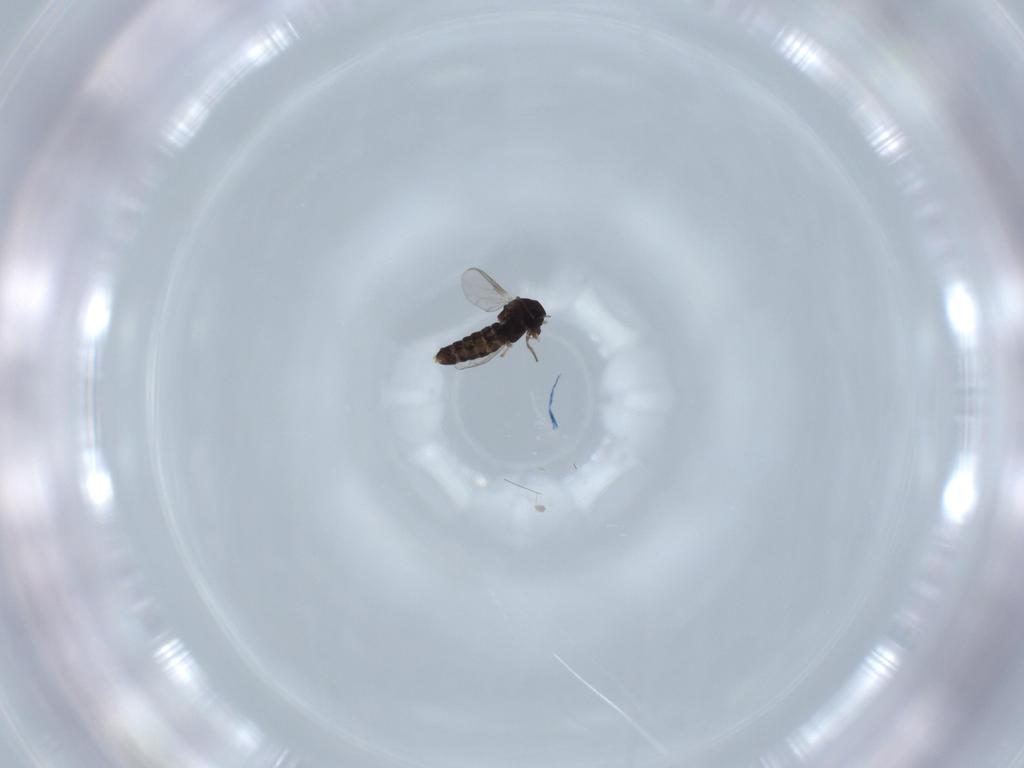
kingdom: Animalia
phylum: Arthropoda
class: Insecta
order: Diptera
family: Chironomidae
